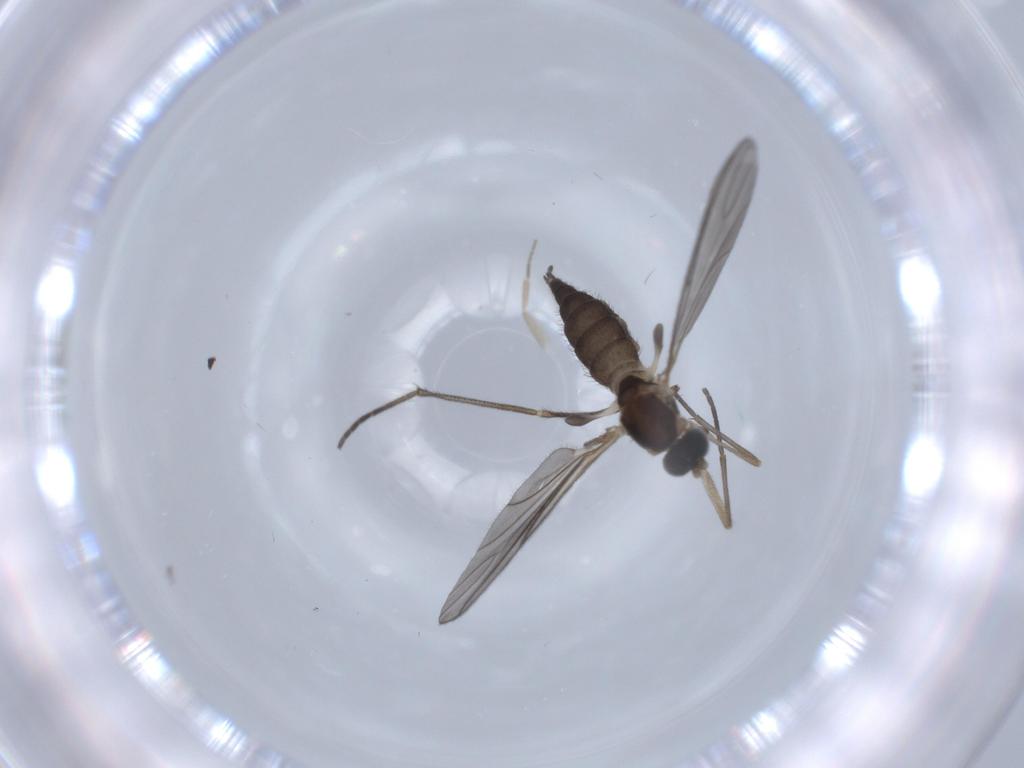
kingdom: Animalia
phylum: Arthropoda
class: Insecta
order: Diptera
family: Sciaridae
